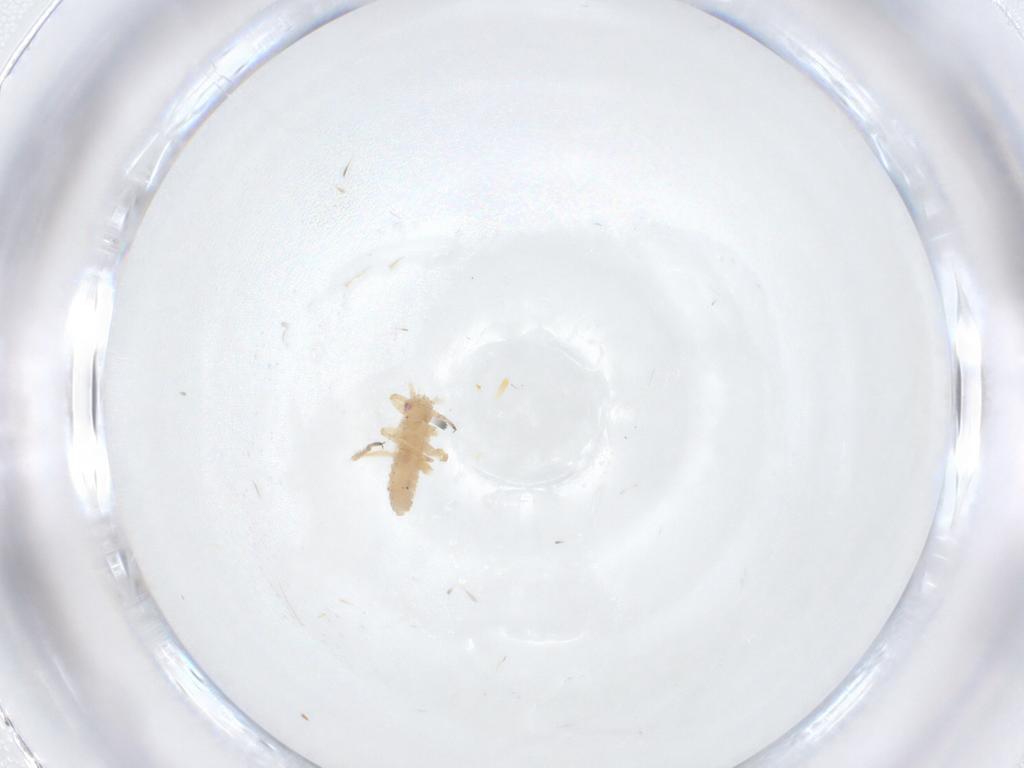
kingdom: Animalia
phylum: Arthropoda
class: Insecta
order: Hemiptera
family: Aphididae
